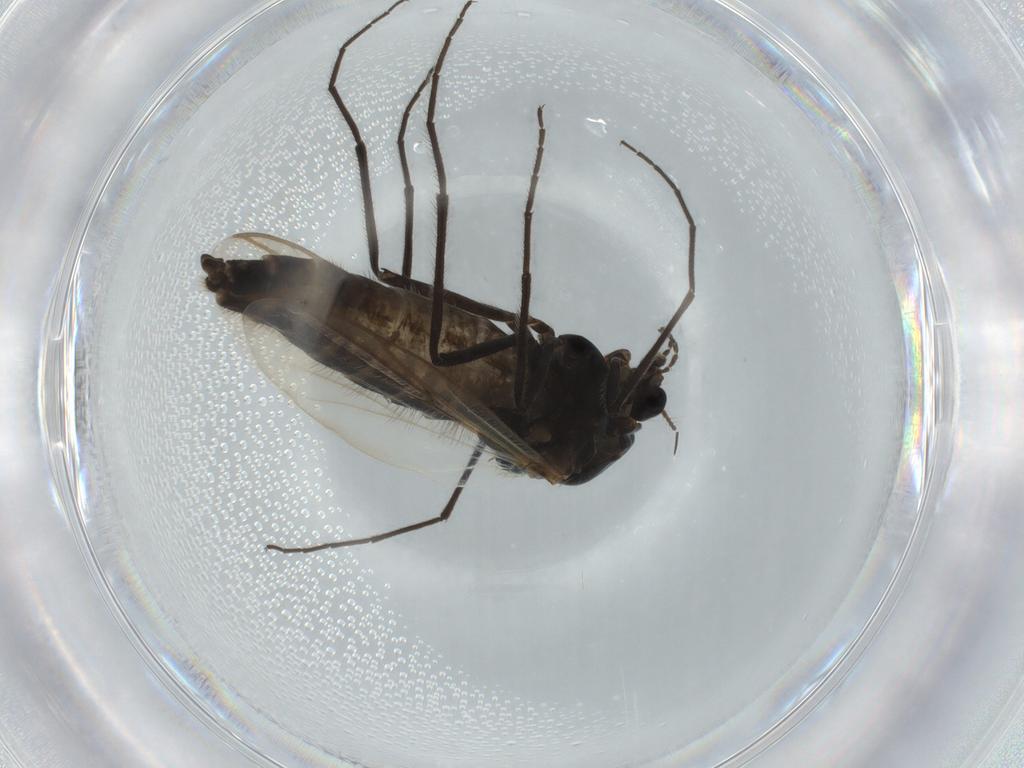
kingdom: Animalia
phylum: Arthropoda
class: Insecta
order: Diptera
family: Chironomidae
